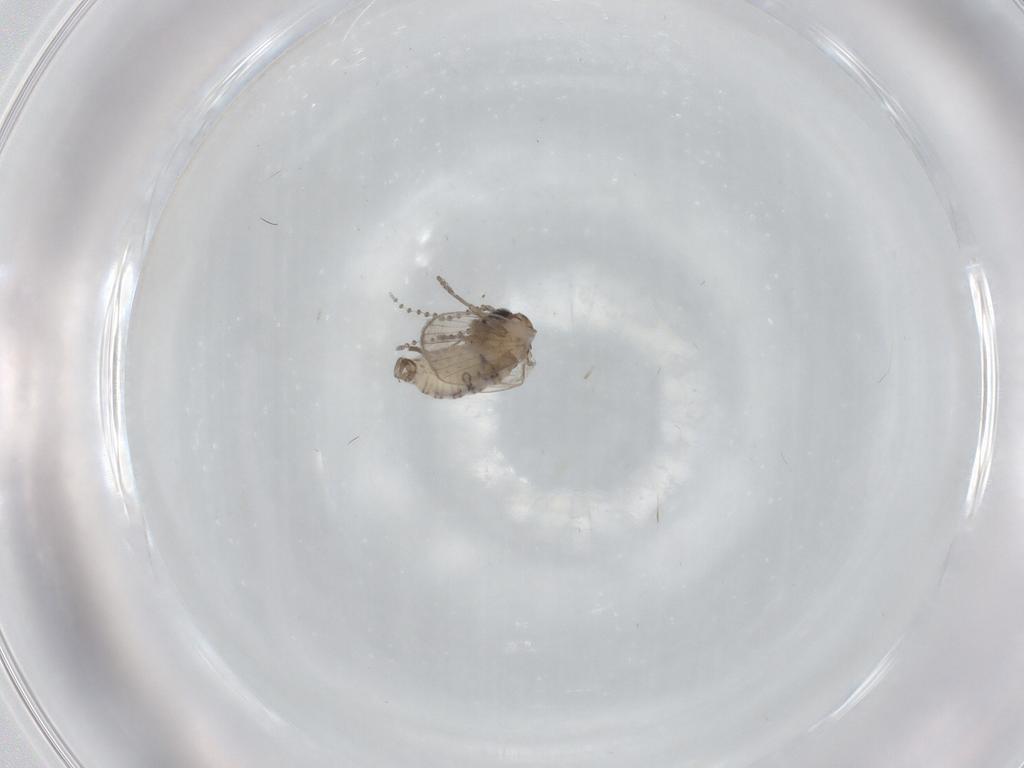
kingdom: Animalia
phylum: Arthropoda
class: Insecta
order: Diptera
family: Psychodidae
